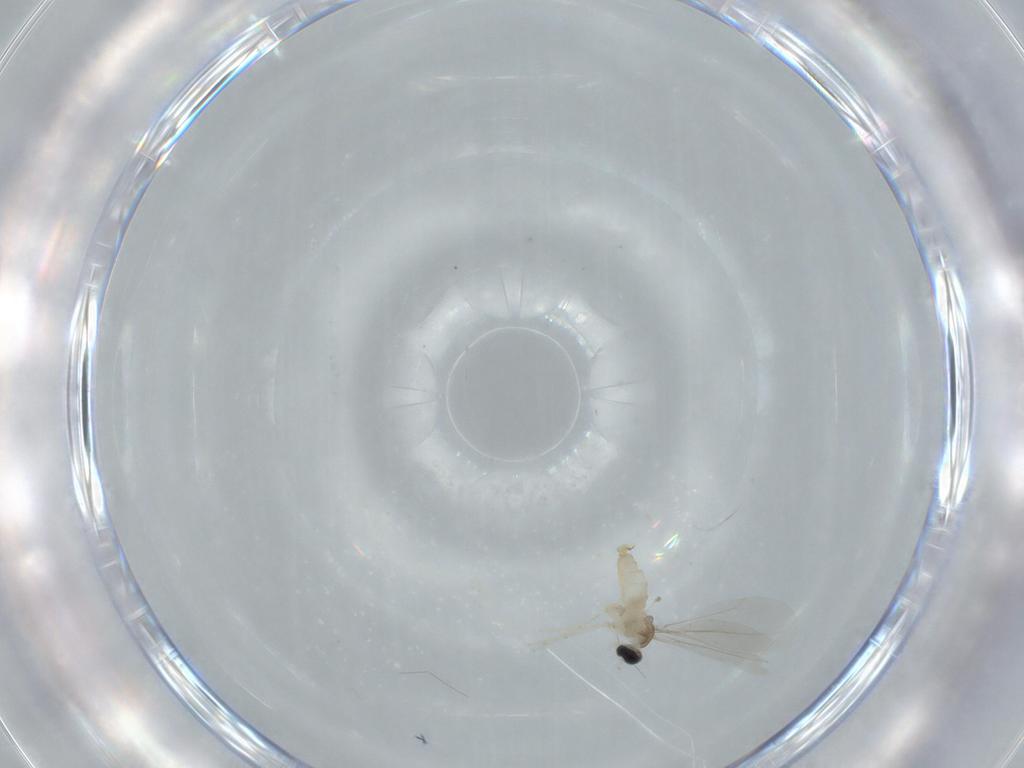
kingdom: Animalia
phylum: Arthropoda
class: Insecta
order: Diptera
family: Cecidomyiidae
